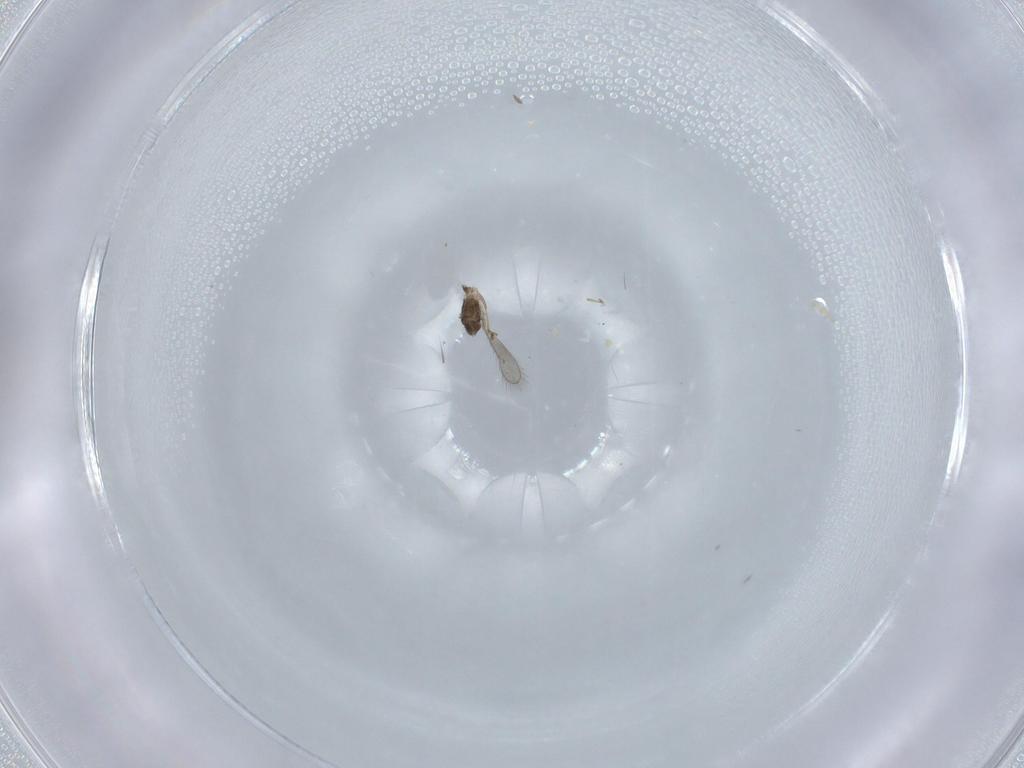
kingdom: Animalia
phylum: Arthropoda
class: Insecta
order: Hymenoptera
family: Eulophidae
